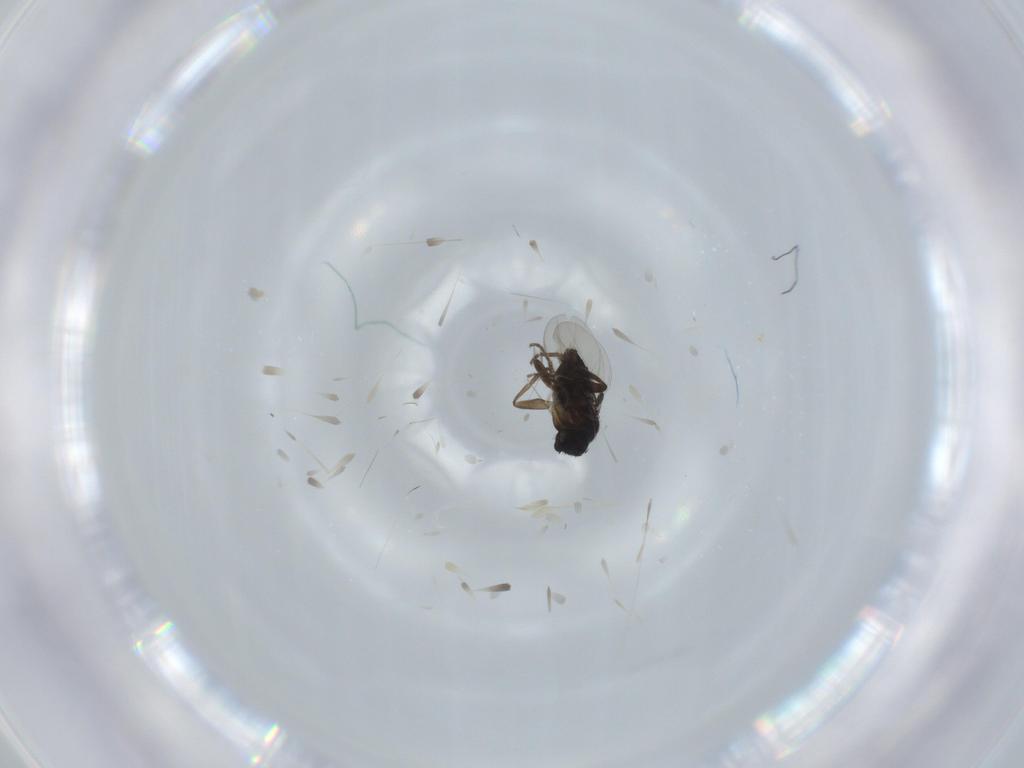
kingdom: Animalia
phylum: Arthropoda
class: Insecta
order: Diptera
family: Phoridae
